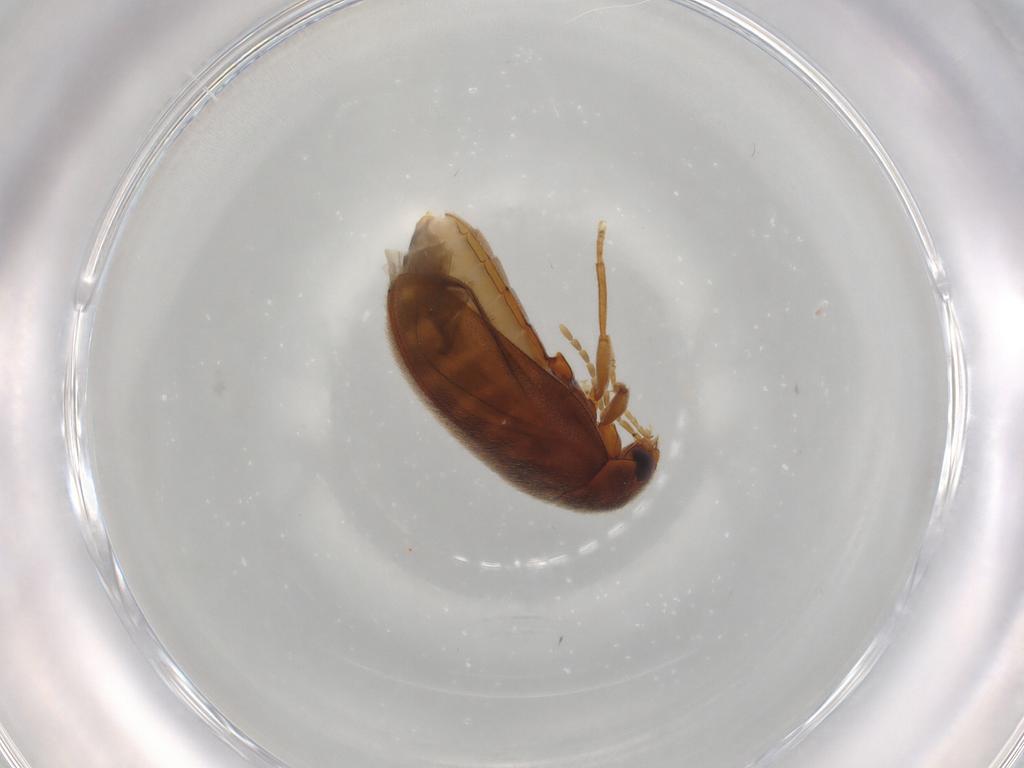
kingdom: Animalia
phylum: Arthropoda
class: Insecta
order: Coleoptera
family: Scirtidae
